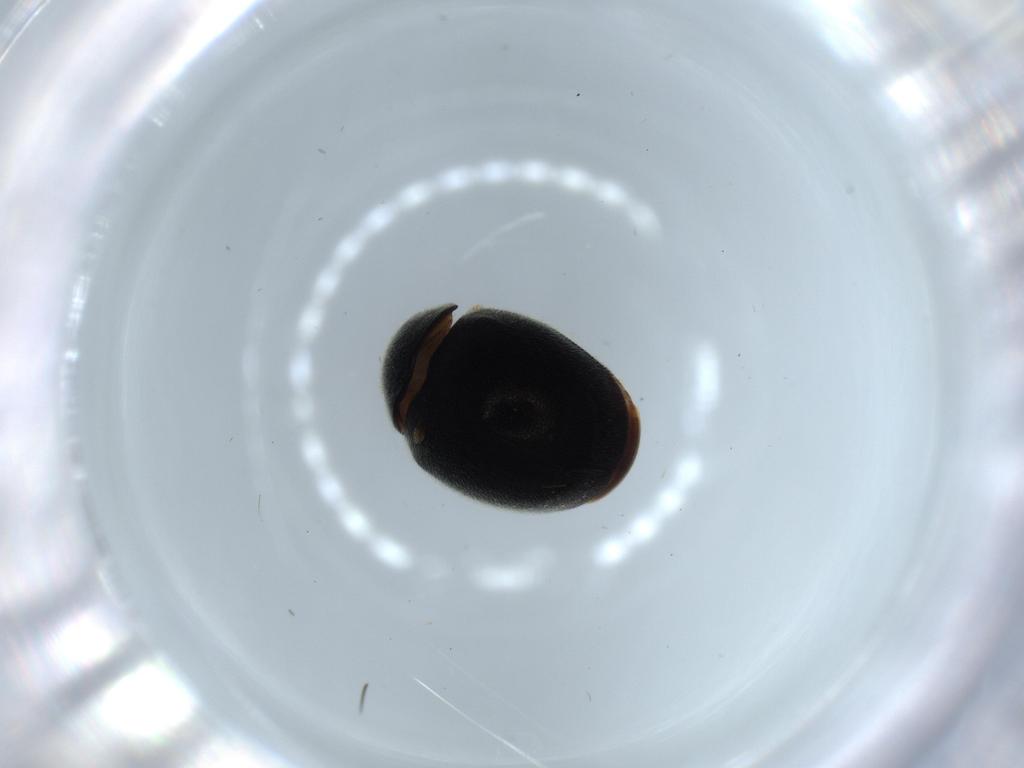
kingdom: Animalia
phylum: Arthropoda
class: Insecta
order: Coleoptera
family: Coccinellidae
